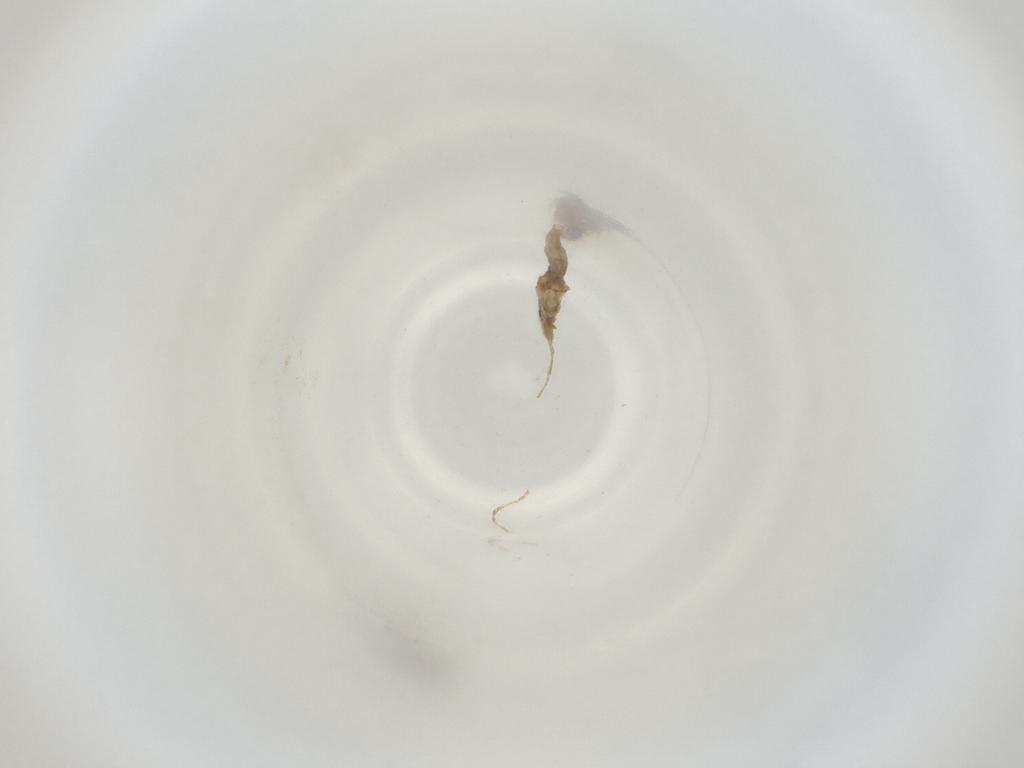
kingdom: Animalia
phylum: Arthropoda
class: Insecta
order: Diptera
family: Cecidomyiidae
